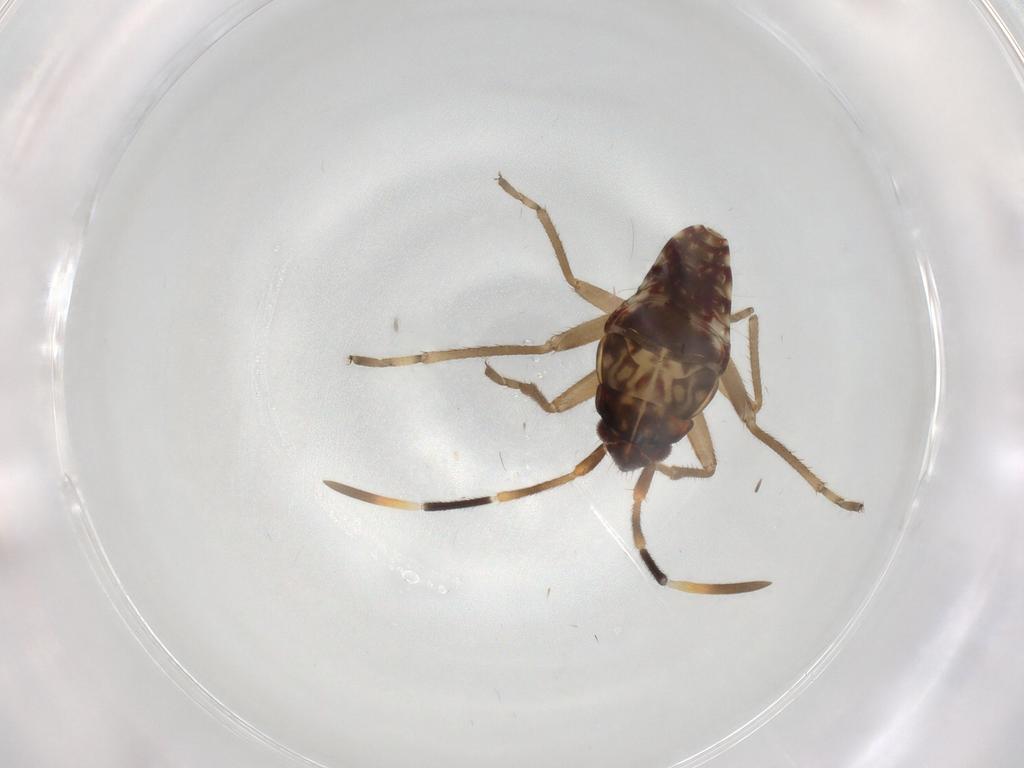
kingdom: Animalia
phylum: Arthropoda
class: Insecta
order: Hemiptera
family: Rhyparochromidae
